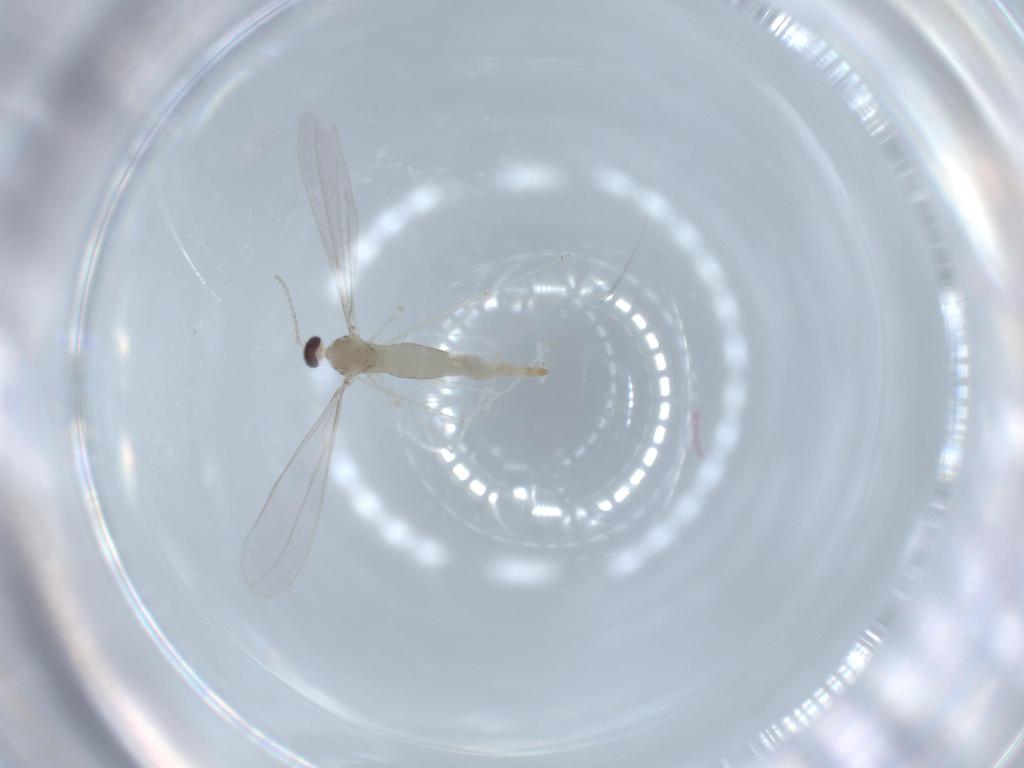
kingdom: Animalia
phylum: Arthropoda
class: Insecta
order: Diptera
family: Cecidomyiidae
